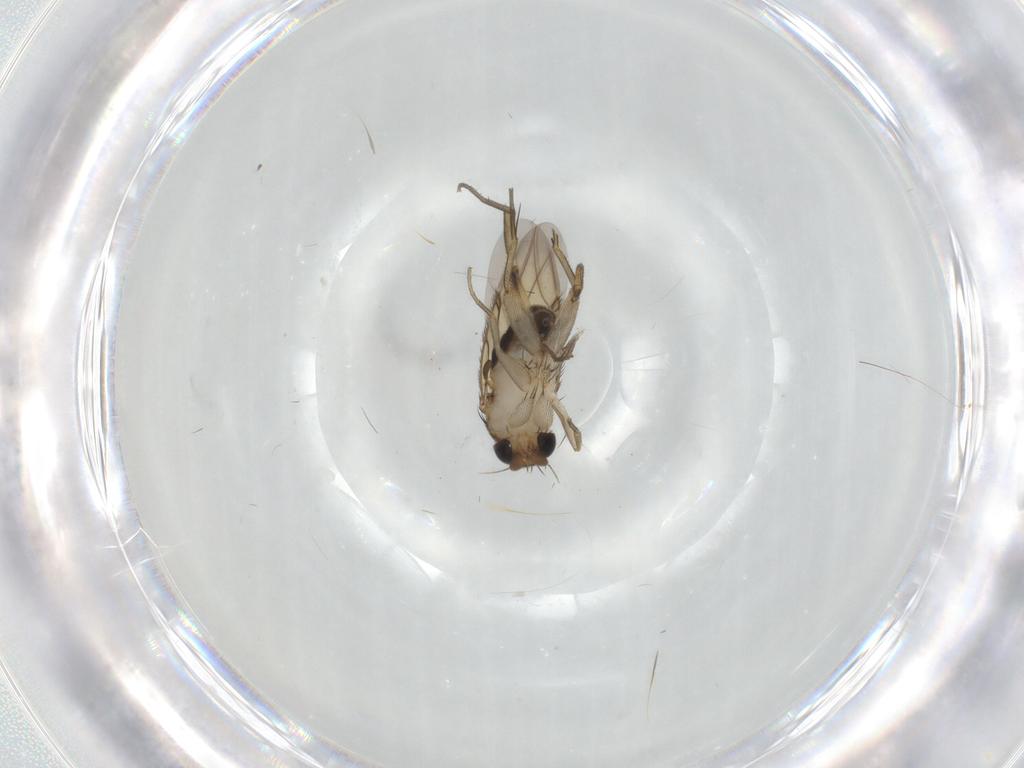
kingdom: Animalia
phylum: Arthropoda
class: Insecta
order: Diptera
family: Phoridae
